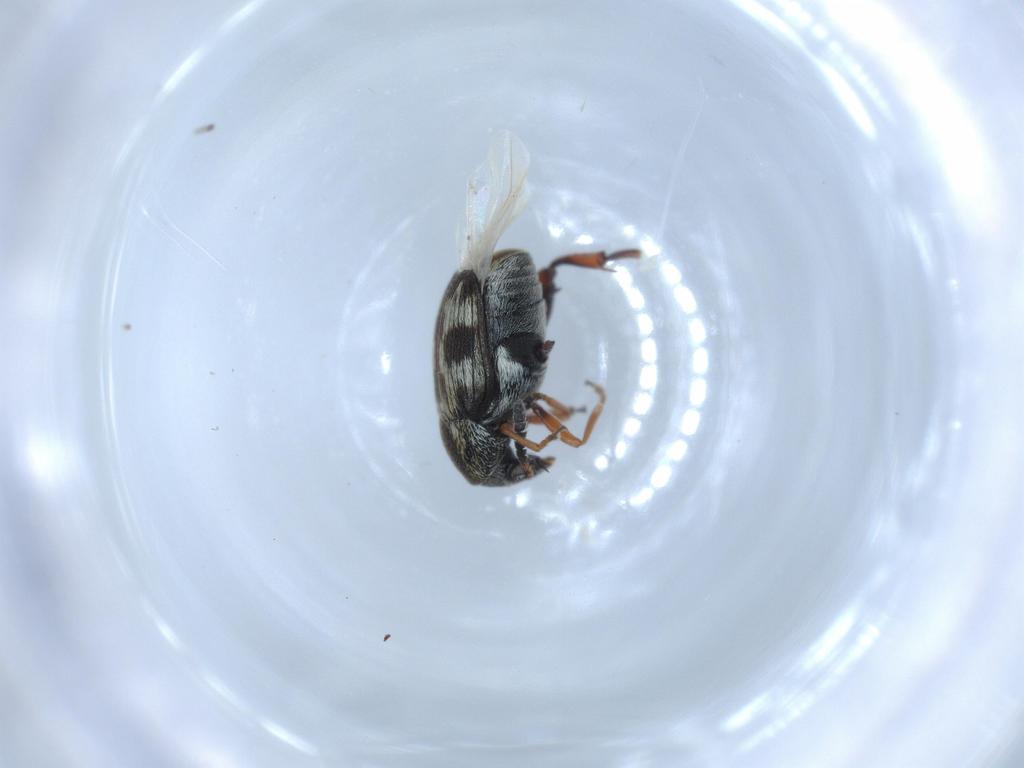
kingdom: Animalia
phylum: Arthropoda
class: Insecta
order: Coleoptera
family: Chrysomelidae
